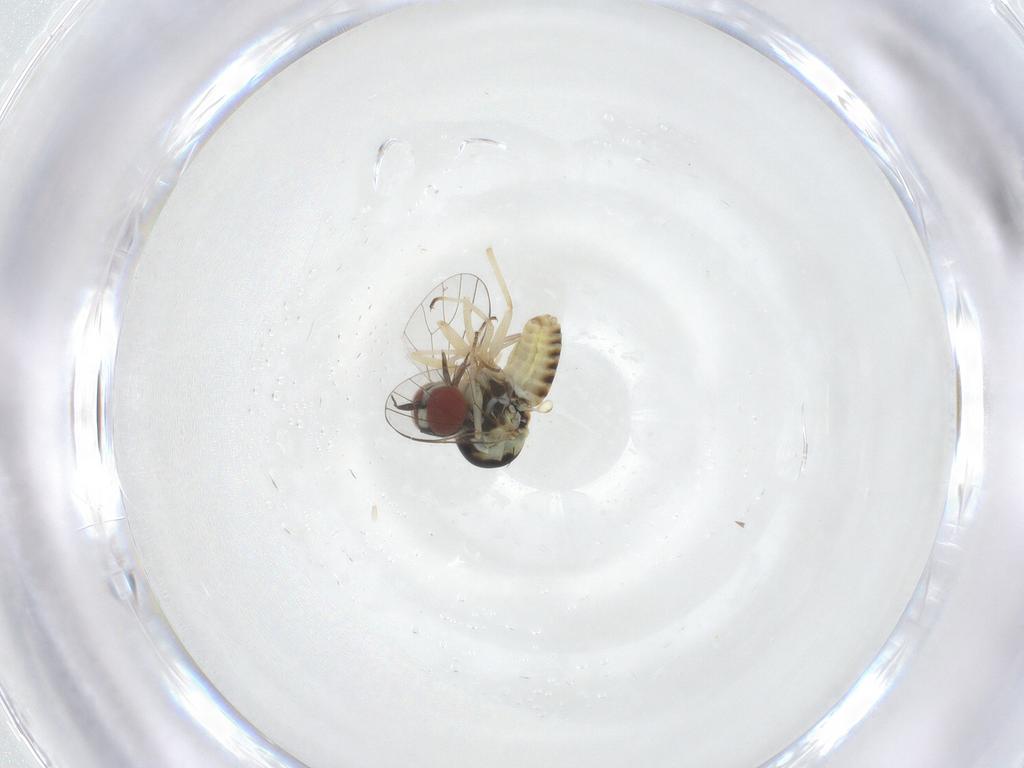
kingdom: Animalia
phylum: Arthropoda
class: Insecta
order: Diptera
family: Mythicomyiidae
